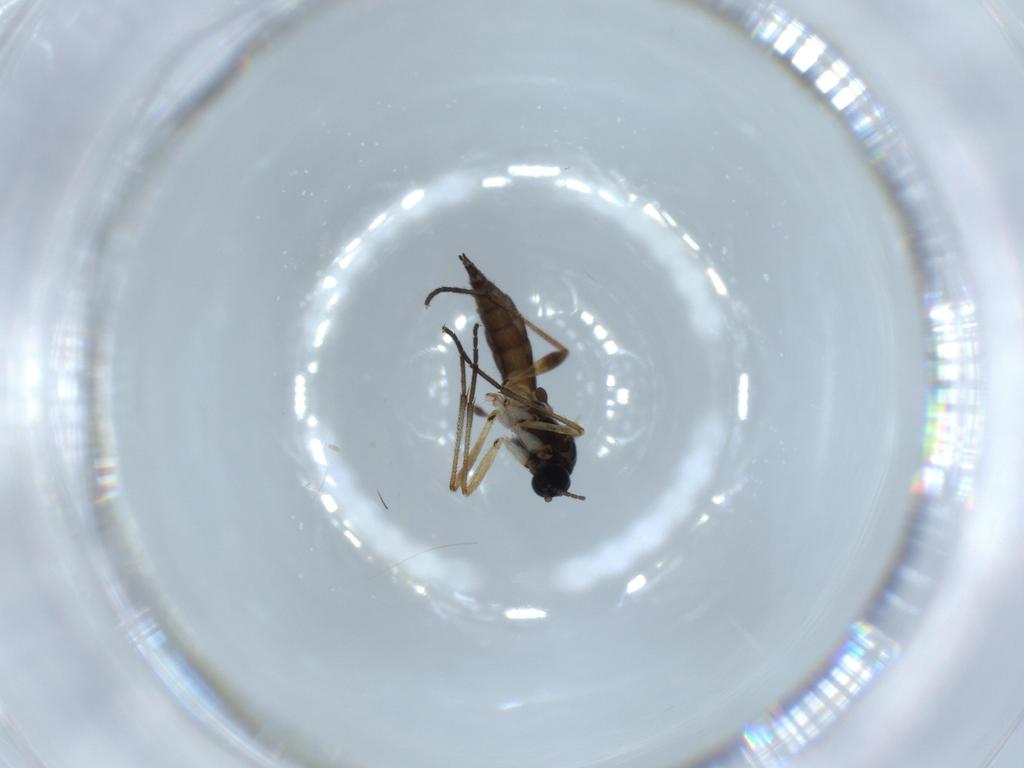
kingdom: Animalia
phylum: Arthropoda
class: Insecta
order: Diptera
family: Sciaridae
